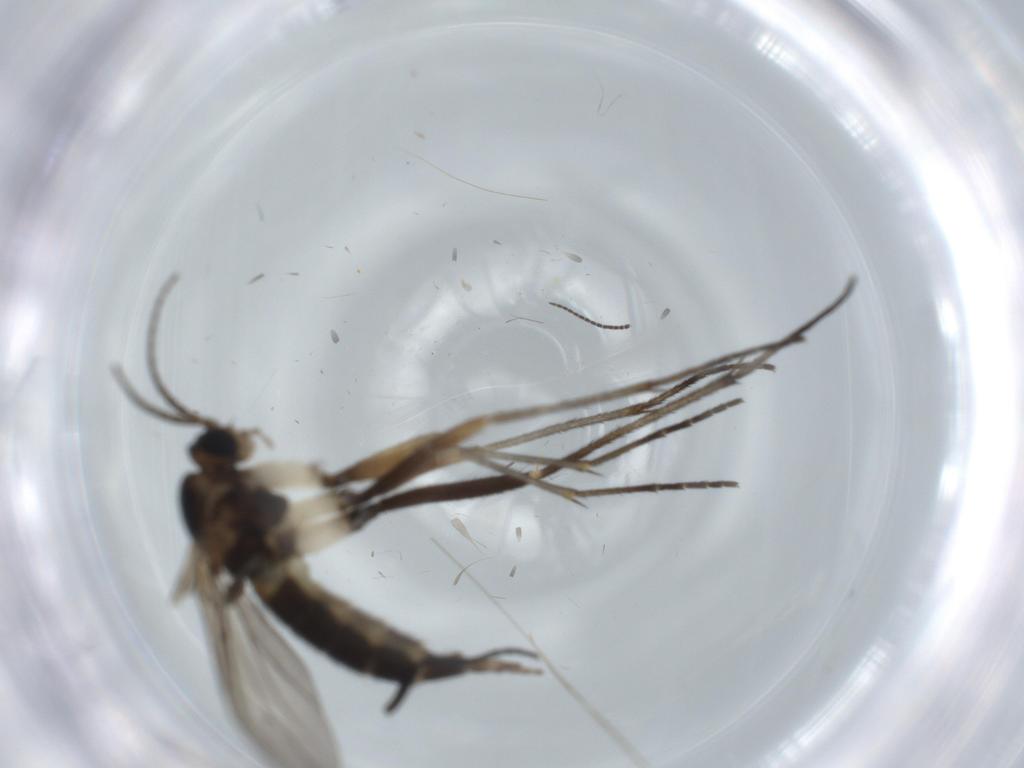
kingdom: Animalia
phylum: Arthropoda
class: Insecta
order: Diptera
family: Sciaridae
